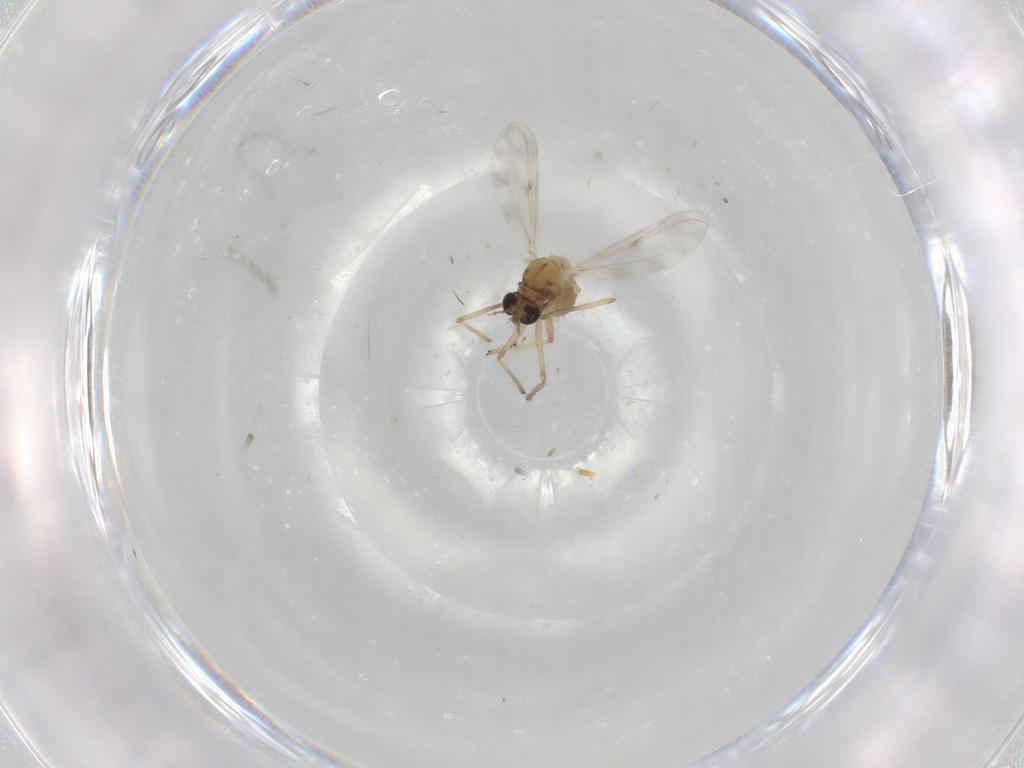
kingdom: Animalia
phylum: Arthropoda
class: Insecta
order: Diptera
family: Chironomidae
